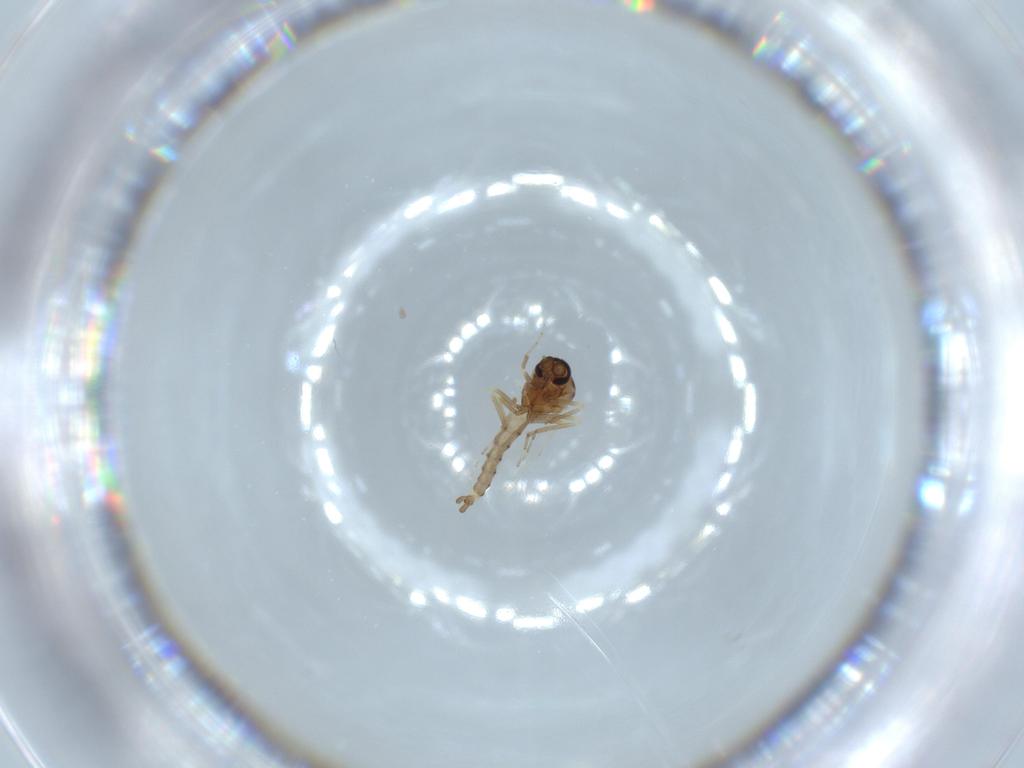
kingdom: Animalia
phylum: Arthropoda
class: Insecta
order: Diptera
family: Ceratopogonidae
